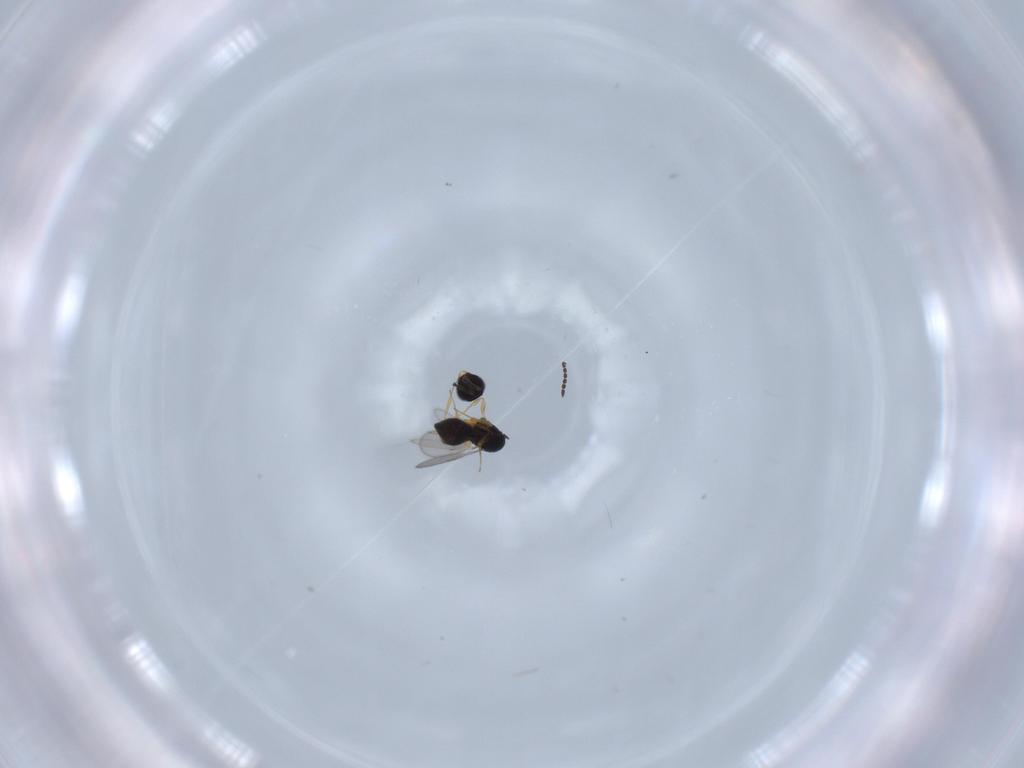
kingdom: Animalia
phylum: Arthropoda
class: Insecta
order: Hymenoptera
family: Scelionidae
